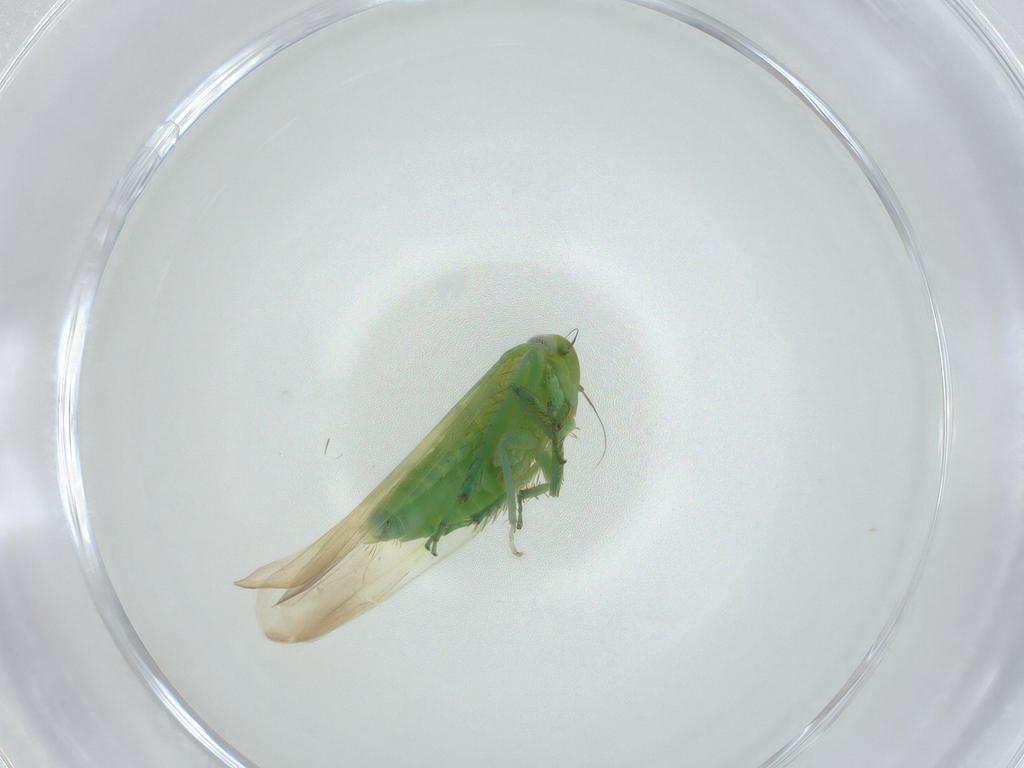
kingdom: Animalia
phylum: Arthropoda
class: Insecta
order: Hemiptera
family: Cicadellidae
